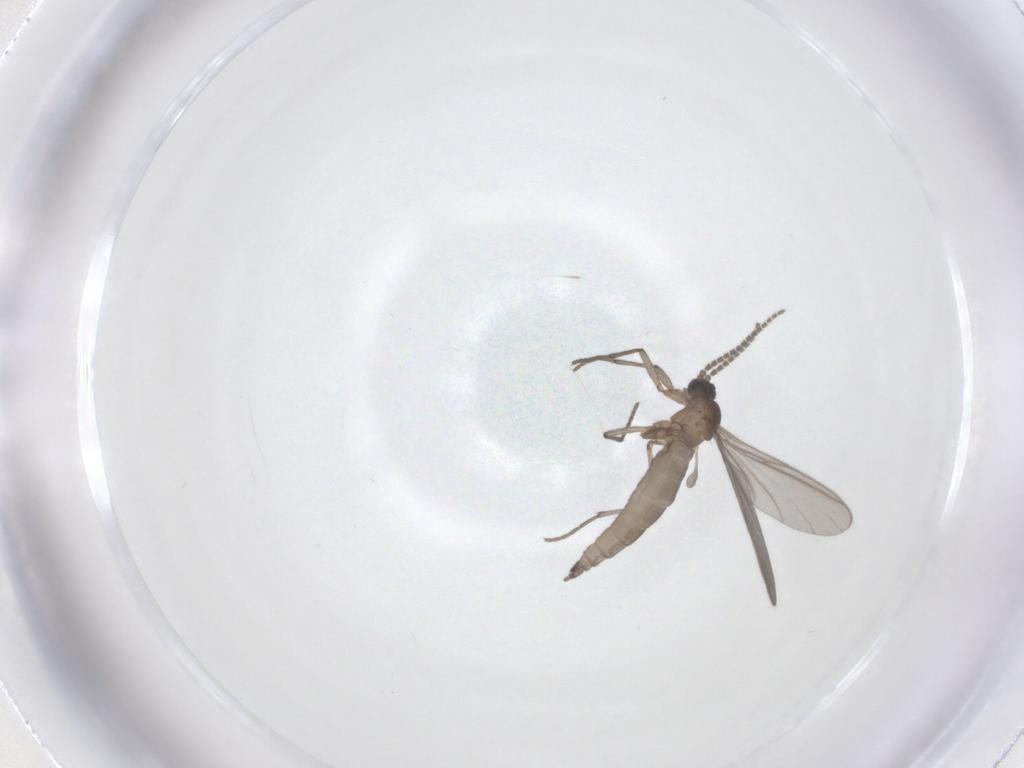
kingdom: Animalia
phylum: Arthropoda
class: Insecta
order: Diptera
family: Sciaridae
